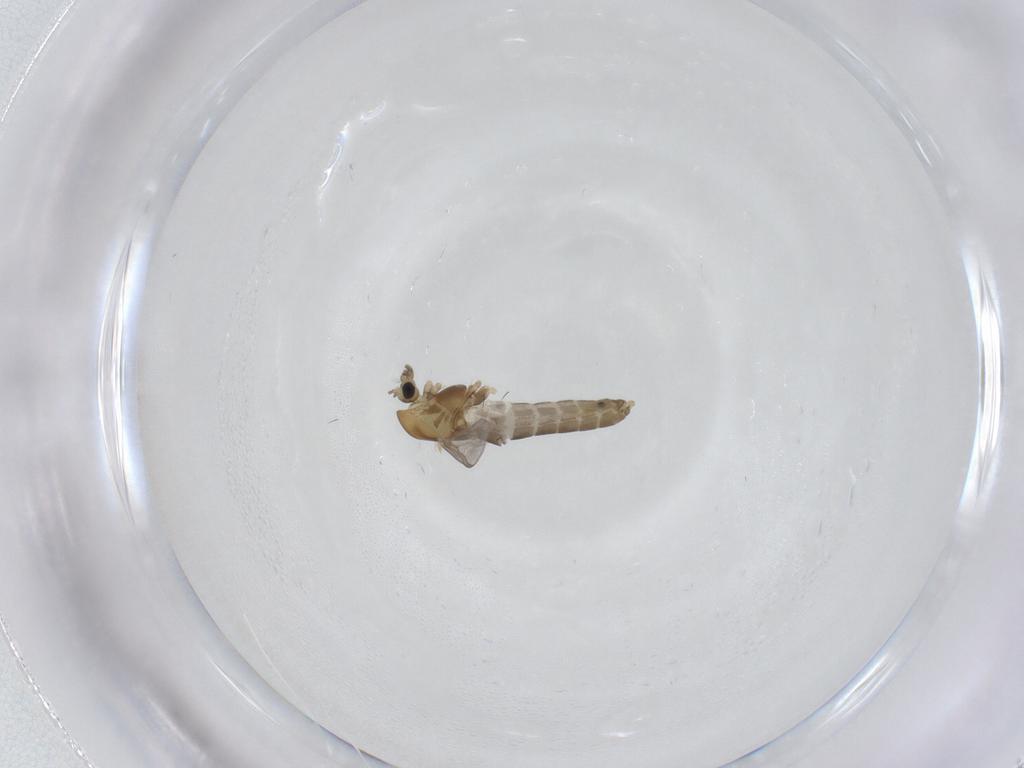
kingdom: Animalia
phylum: Arthropoda
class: Insecta
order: Diptera
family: Chironomidae
